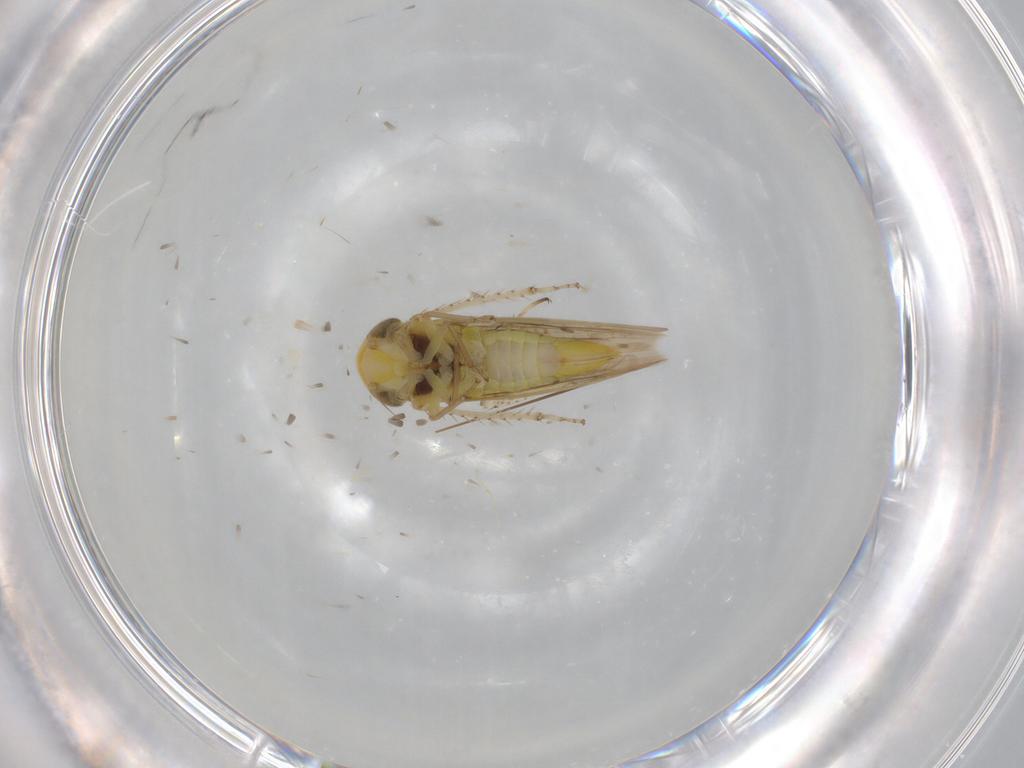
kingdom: Animalia
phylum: Arthropoda
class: Insecta
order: Hemiptera
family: Cicadellidae
